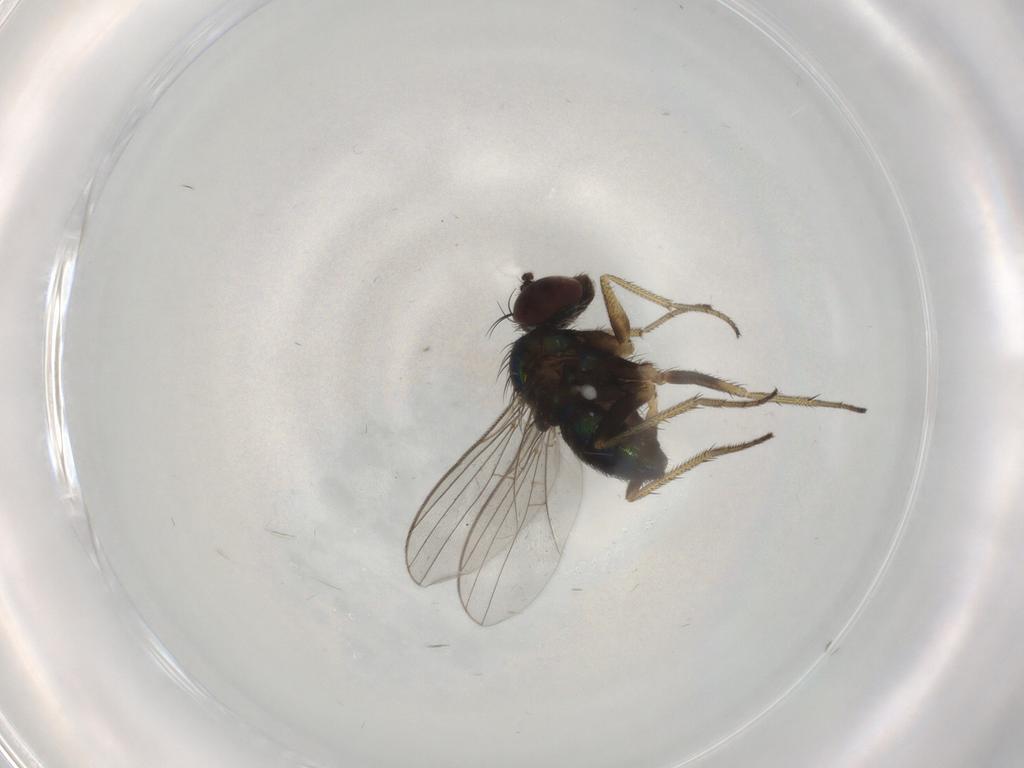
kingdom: Animalia
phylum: Arthropoda
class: Insecta
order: Diptera
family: Dolichopodidae
